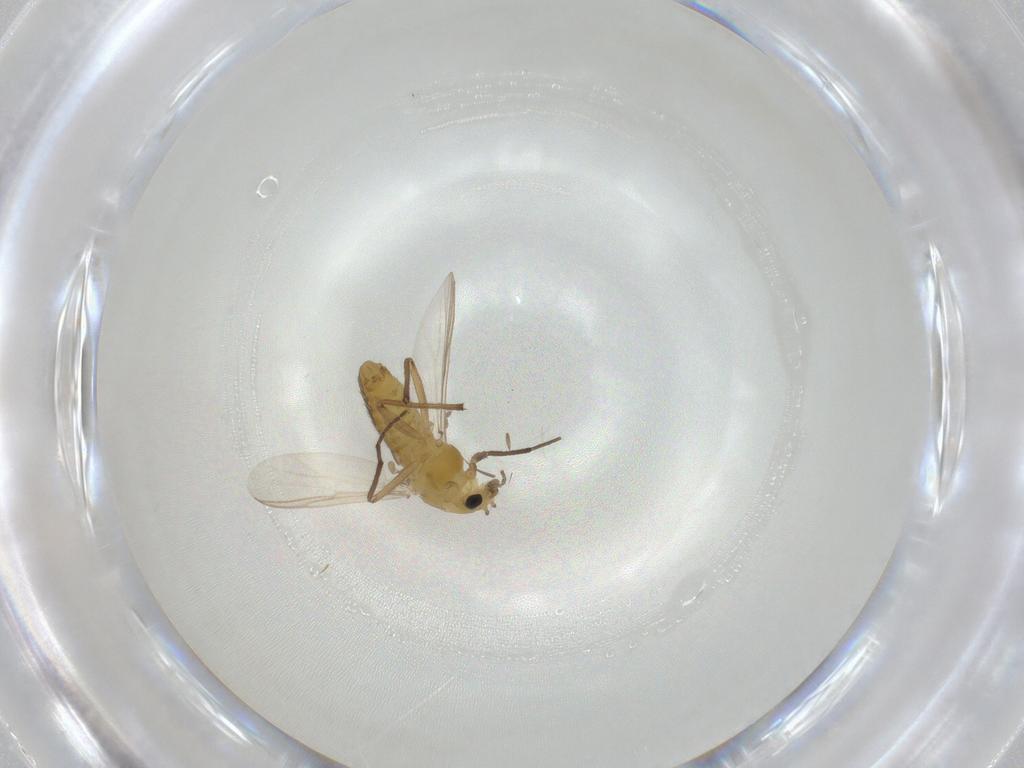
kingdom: Animalia
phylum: Arthropoda
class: Insecta
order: Diptera
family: Chironomidae
